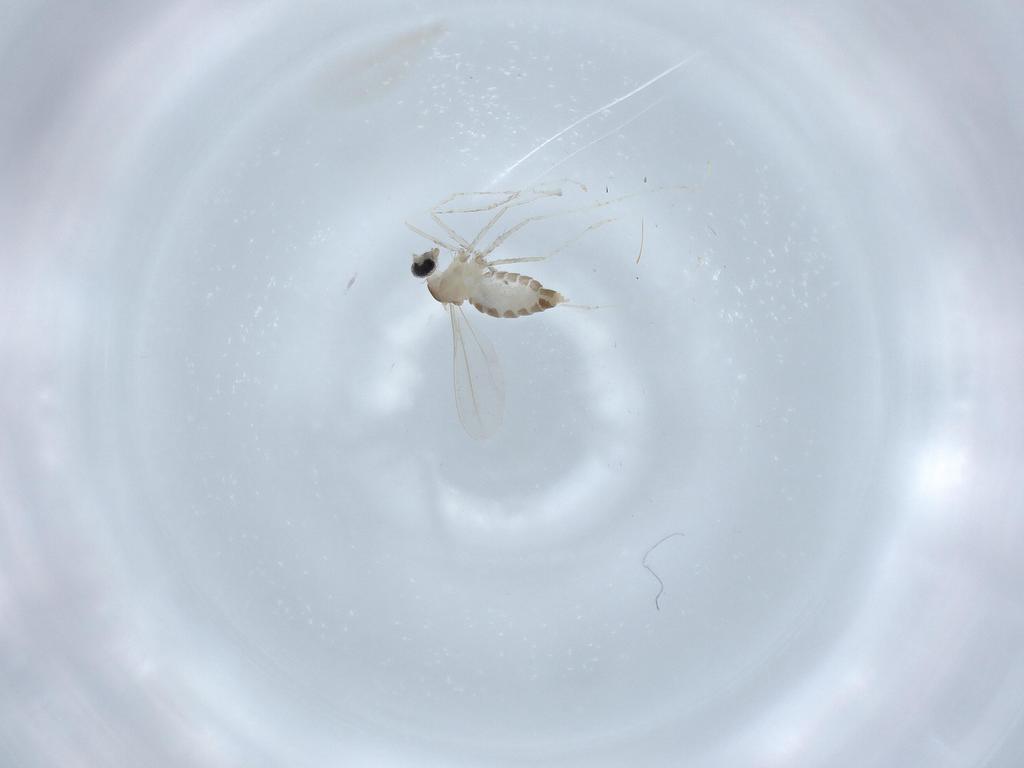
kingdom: Animalia
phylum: Arthropoda
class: Insecta
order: Diptera
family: Cecidomyiidae
